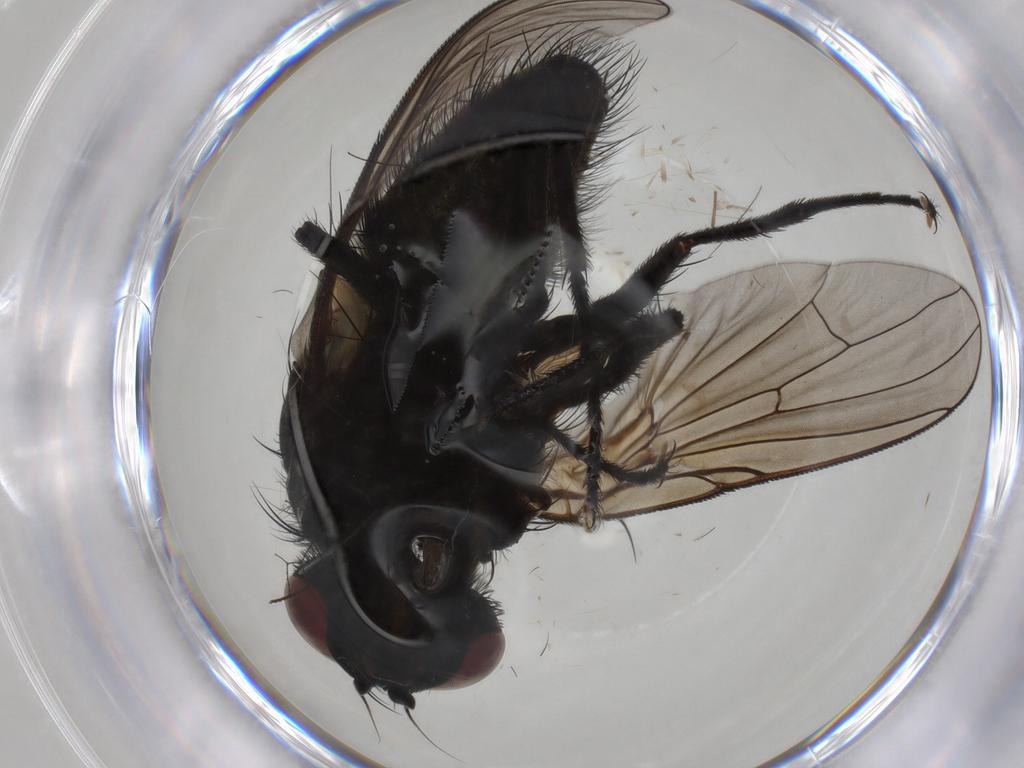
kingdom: Animalia
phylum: Arthropoda
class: Insecta
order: Diptera
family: Muscidae
